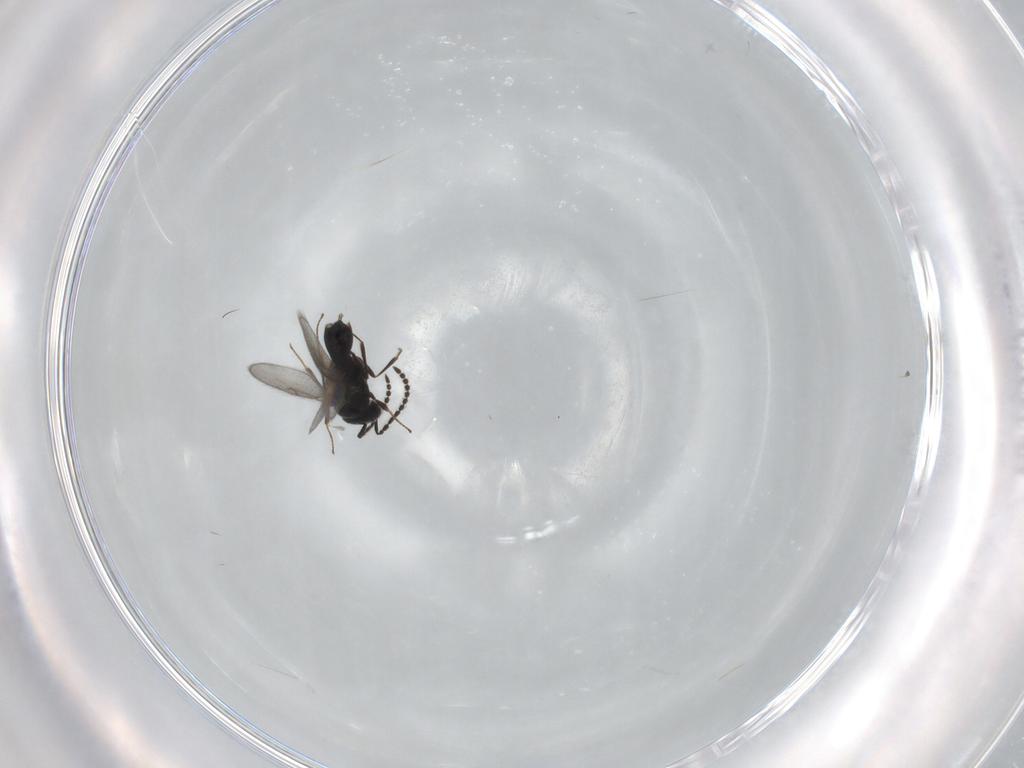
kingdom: Animalia
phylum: Arthropoda
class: Insecta
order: Hymenoptera
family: Scelionidae
